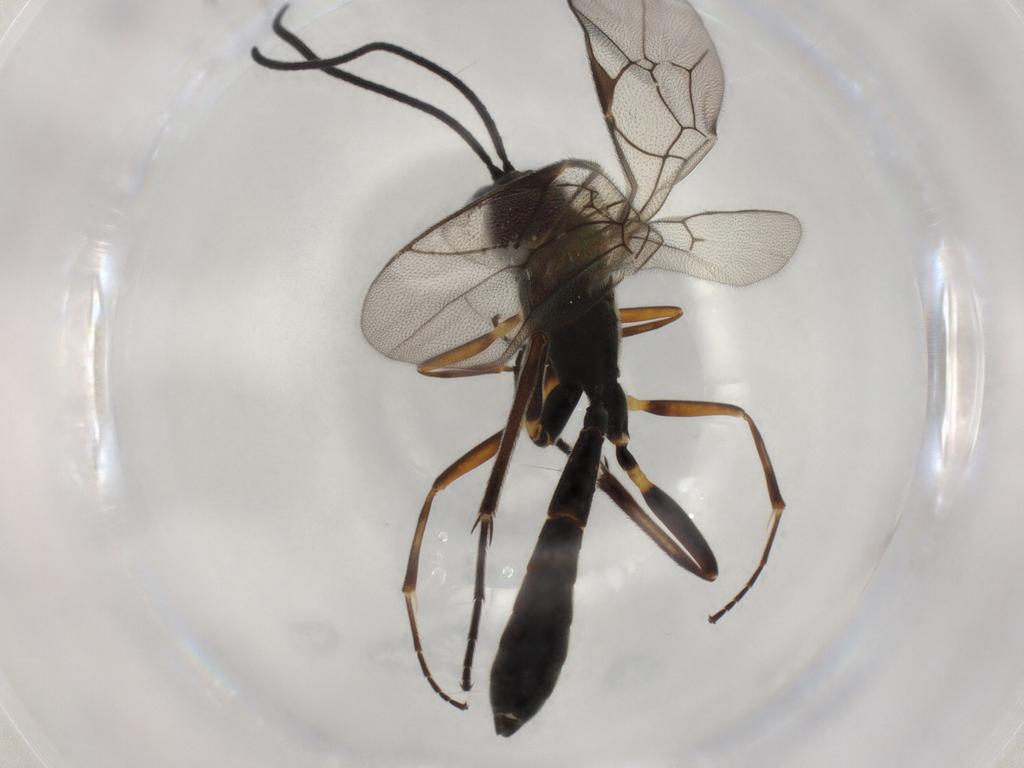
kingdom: Animalia
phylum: Arthropoda
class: Insecta
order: Hymenoptera
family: Ichneumonidae
